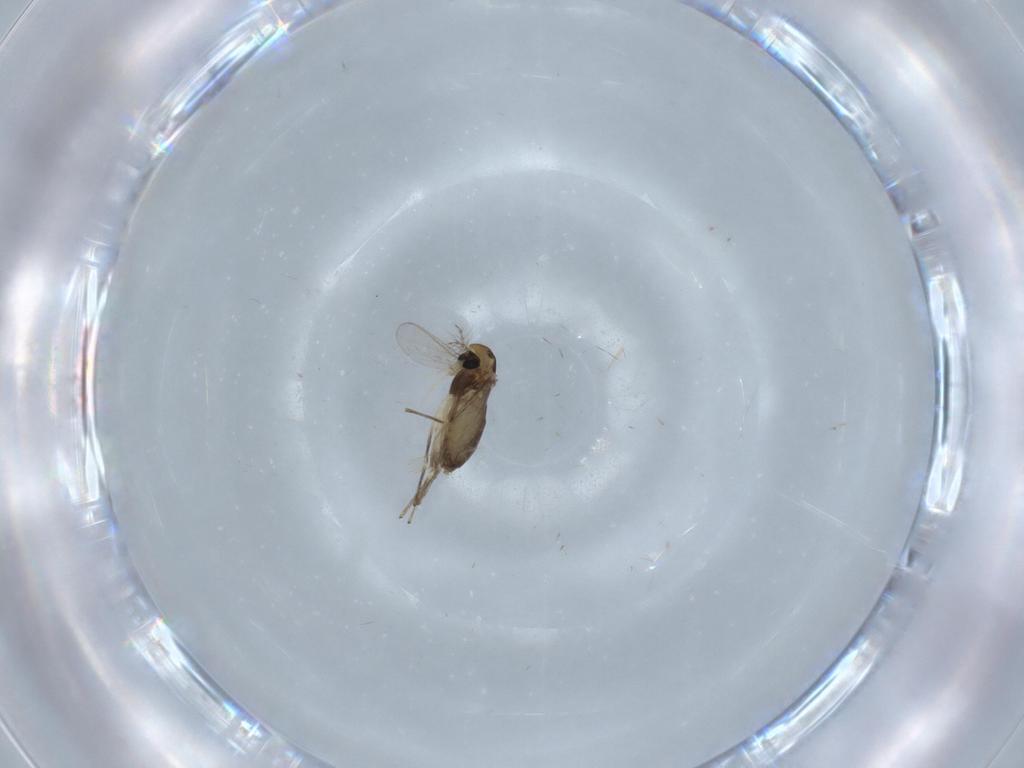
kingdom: Animalia
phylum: Arthropoda
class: Insecta
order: Diptera
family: Chironomidae
